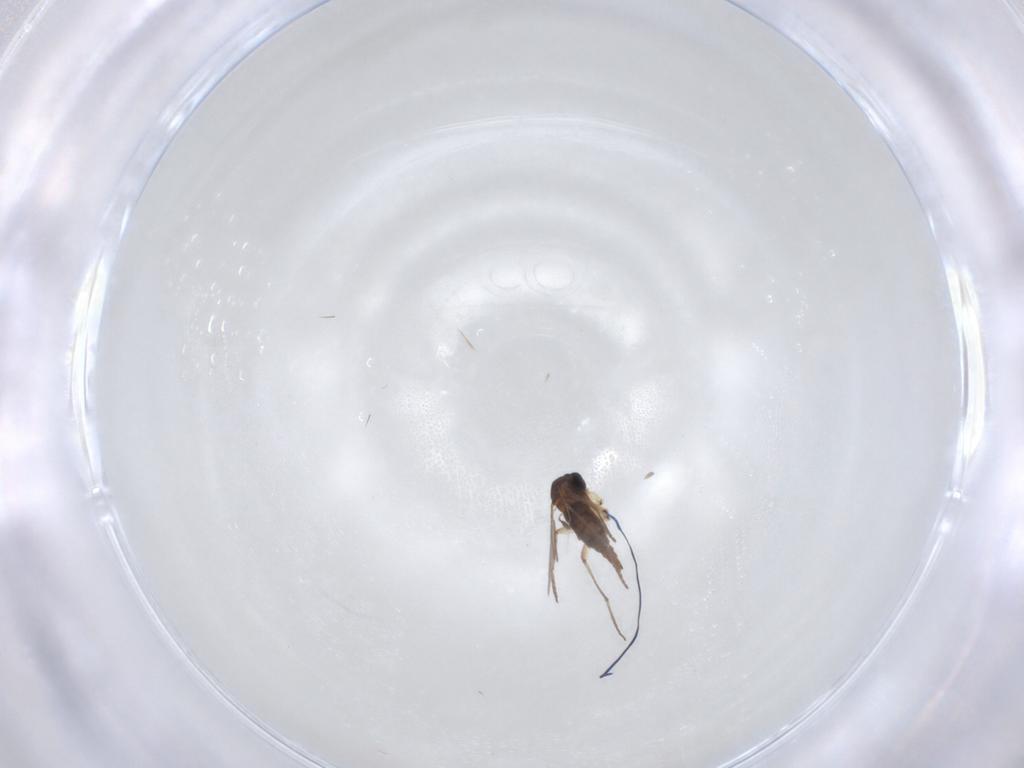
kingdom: Animalia
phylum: Arthropoda
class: Insecta
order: Diptera
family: Sciaridae
